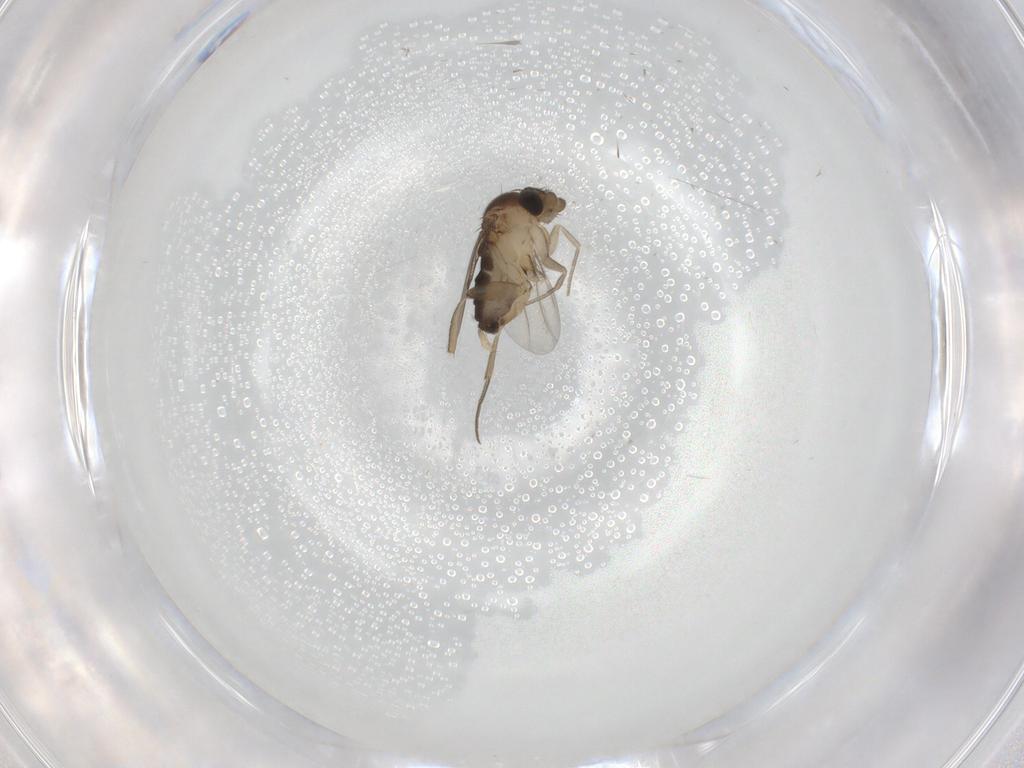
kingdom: Animalia
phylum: Arthropoda
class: Insecta
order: Diptera
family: Phoridae
